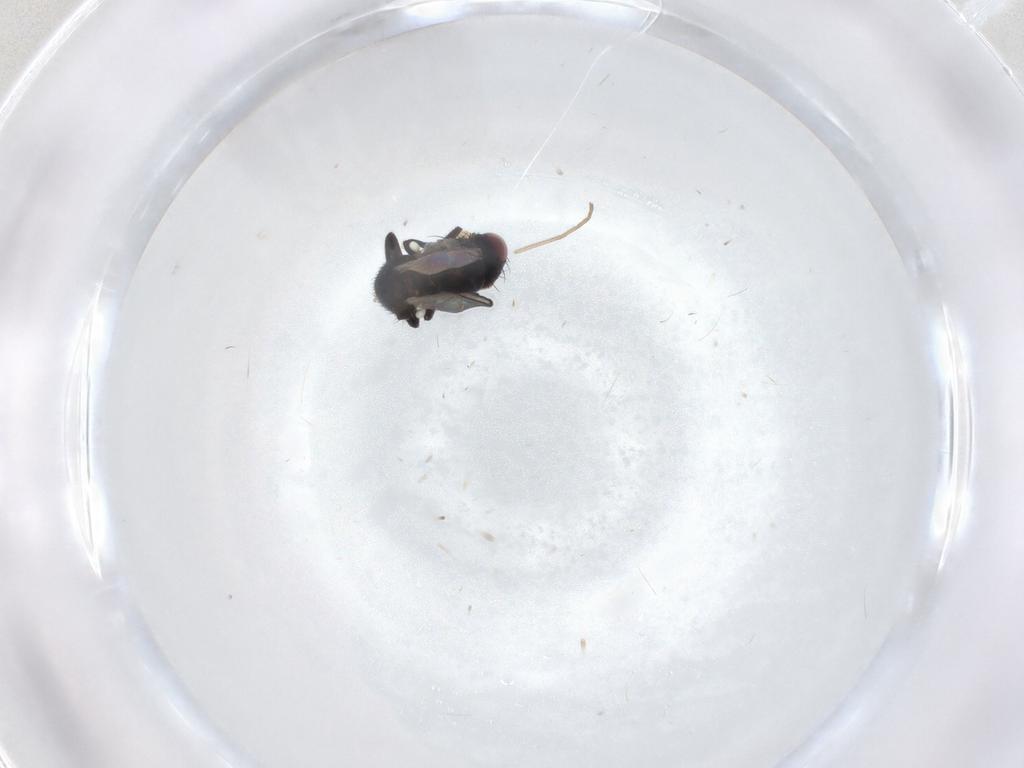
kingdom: Animalia
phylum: Arthropoda
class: Insecta
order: Diptera
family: Cecidomyiidae
